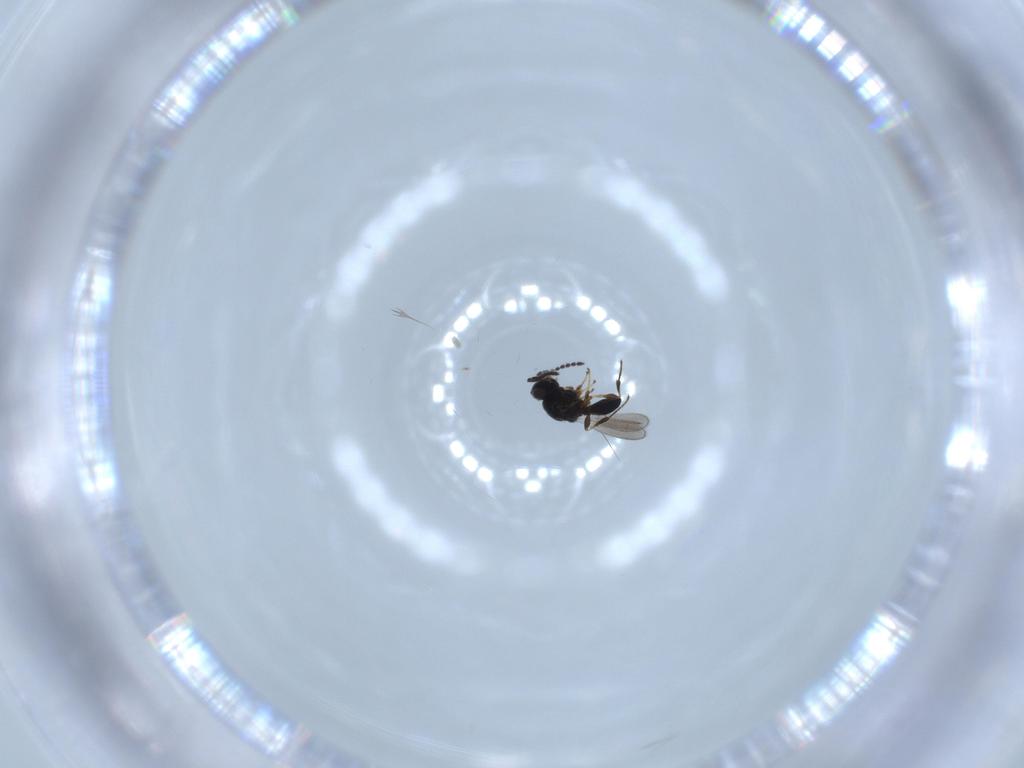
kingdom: Animalia
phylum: Arthropoda
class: Insecta
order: Hymenoptera
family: Platygastridae
